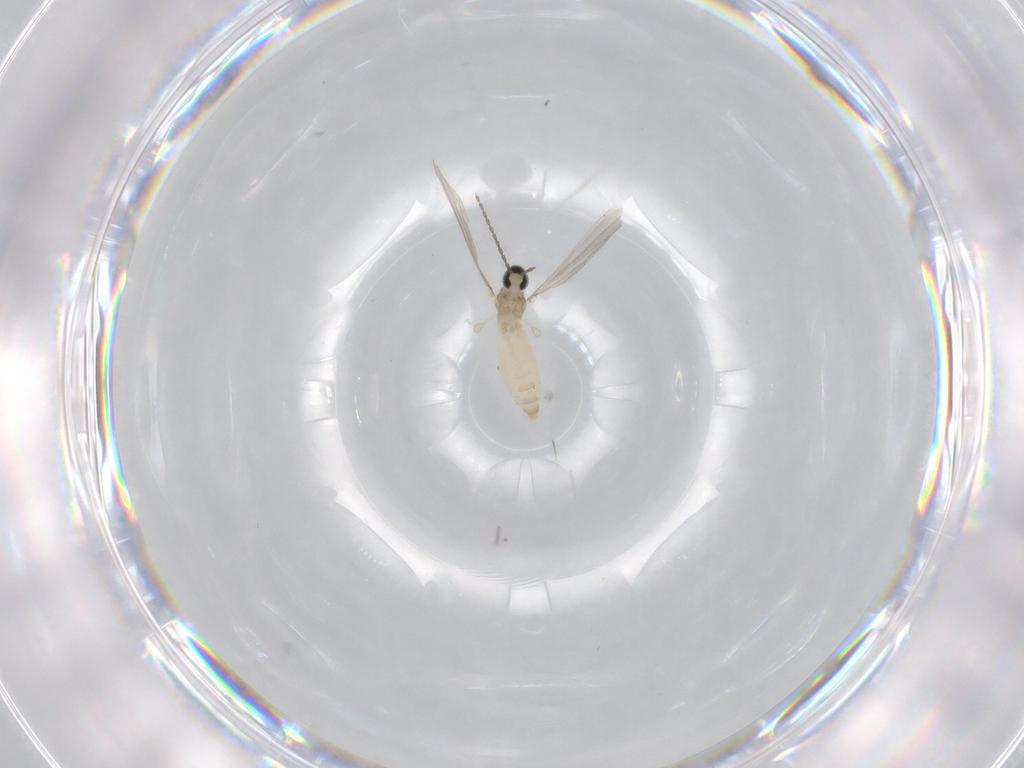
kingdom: Animalia
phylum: Arthropoda
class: Insecta
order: Diptera
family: Cecidomyiidae
